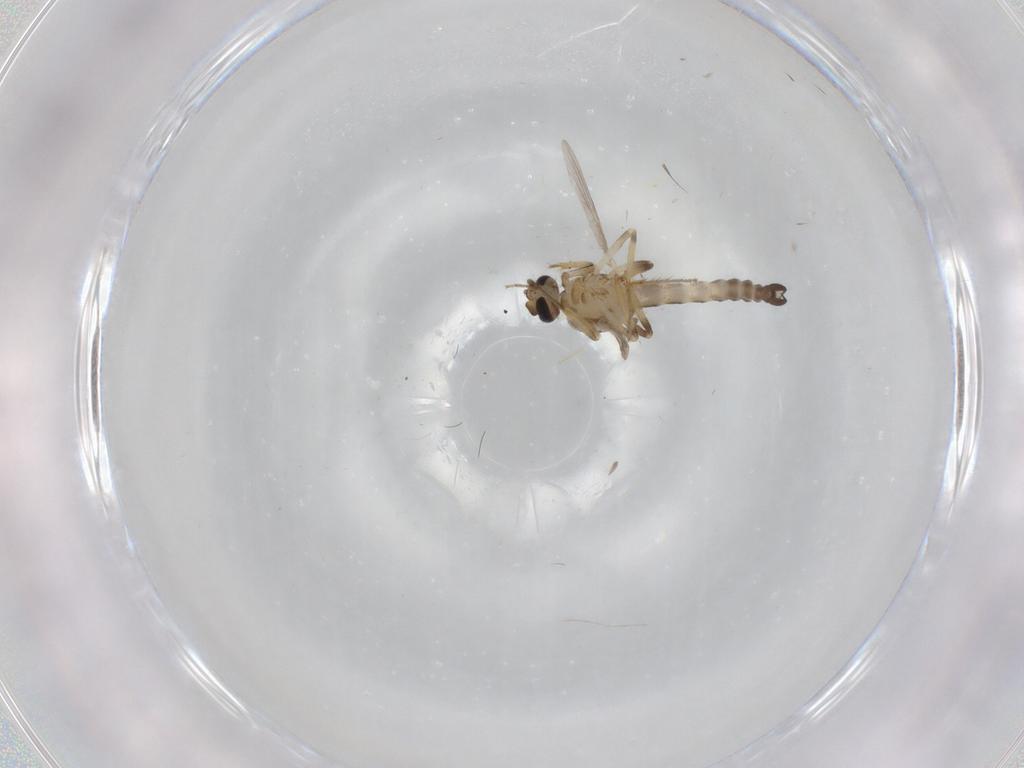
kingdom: Animalia
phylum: Arthropoda
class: Insecta
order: Diptera
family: Ceratopogonidae
